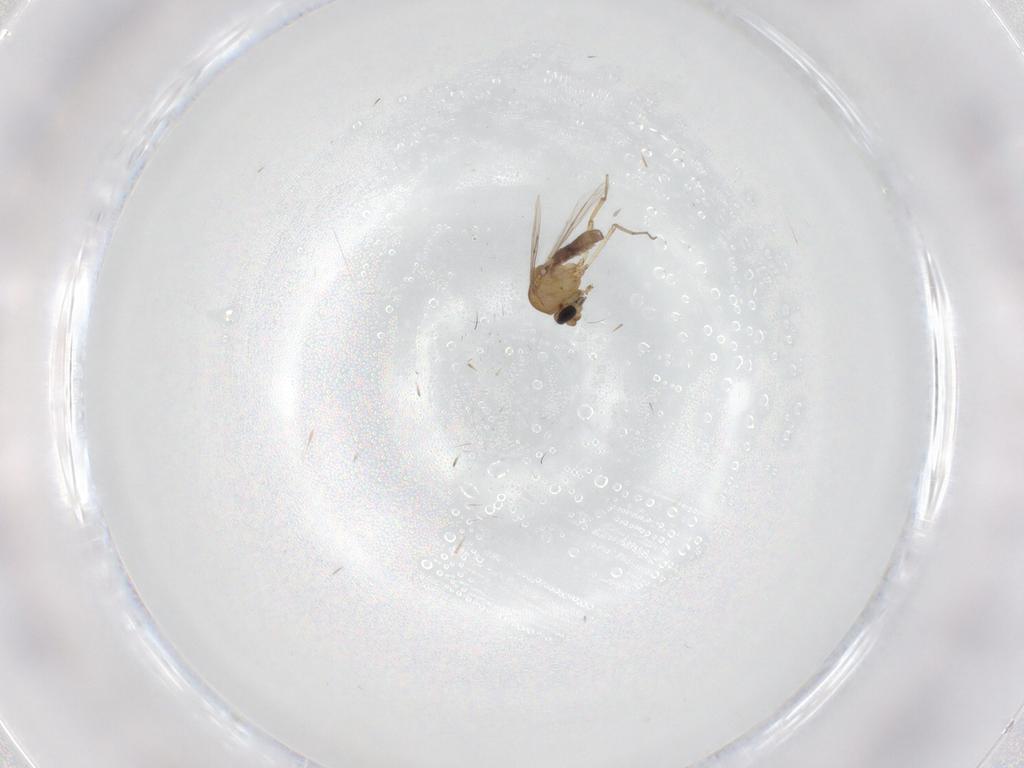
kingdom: Animalia
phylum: Arthropoda
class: Insecta
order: Diptera
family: Ceratopogonidae
